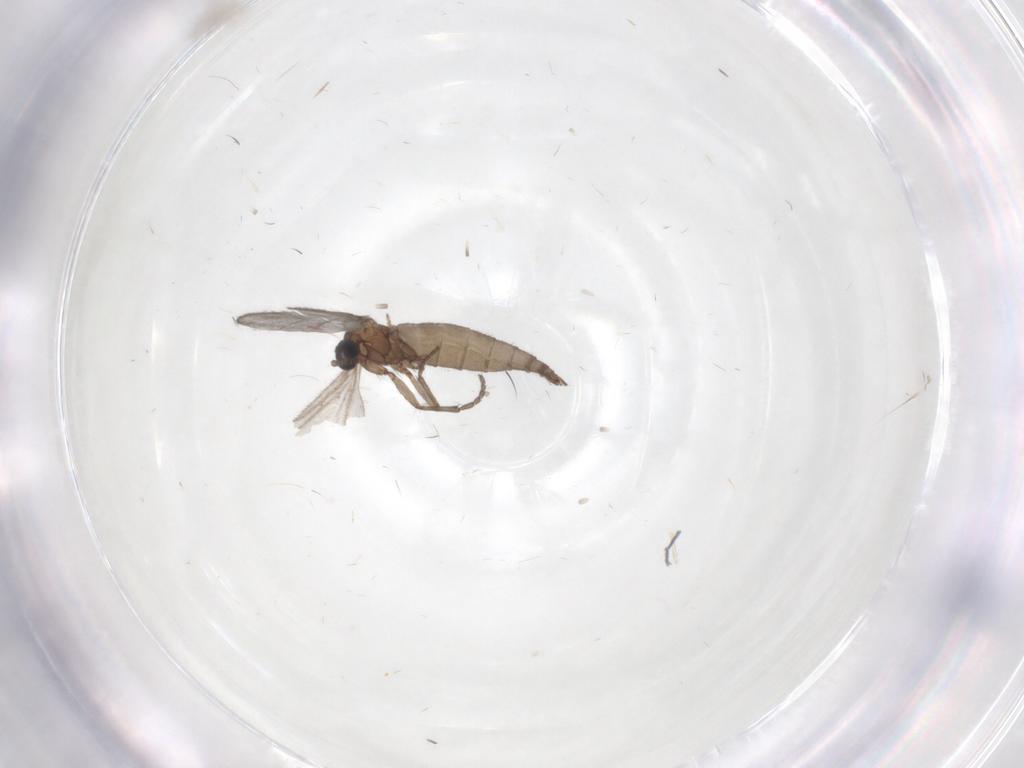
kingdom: Animalia
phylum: Arthropoda
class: Insecta
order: Diptera
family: Sciaridae
